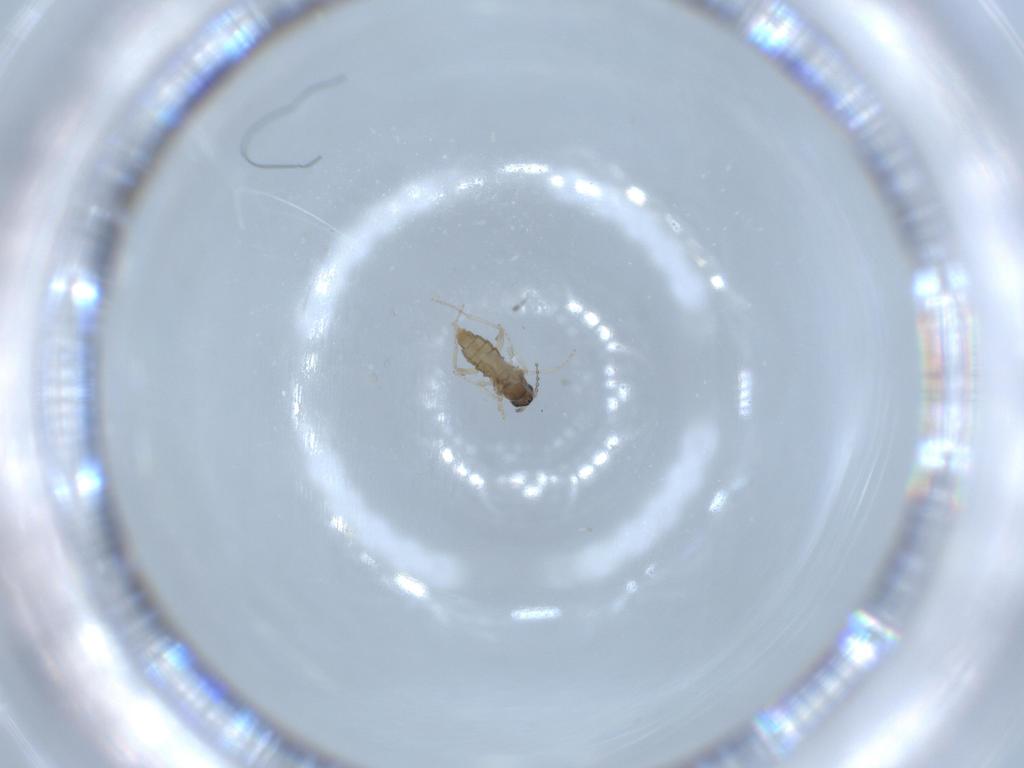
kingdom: Animalia
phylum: Arthropoda
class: Insecta
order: Diptera
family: Cecidomyiidae
